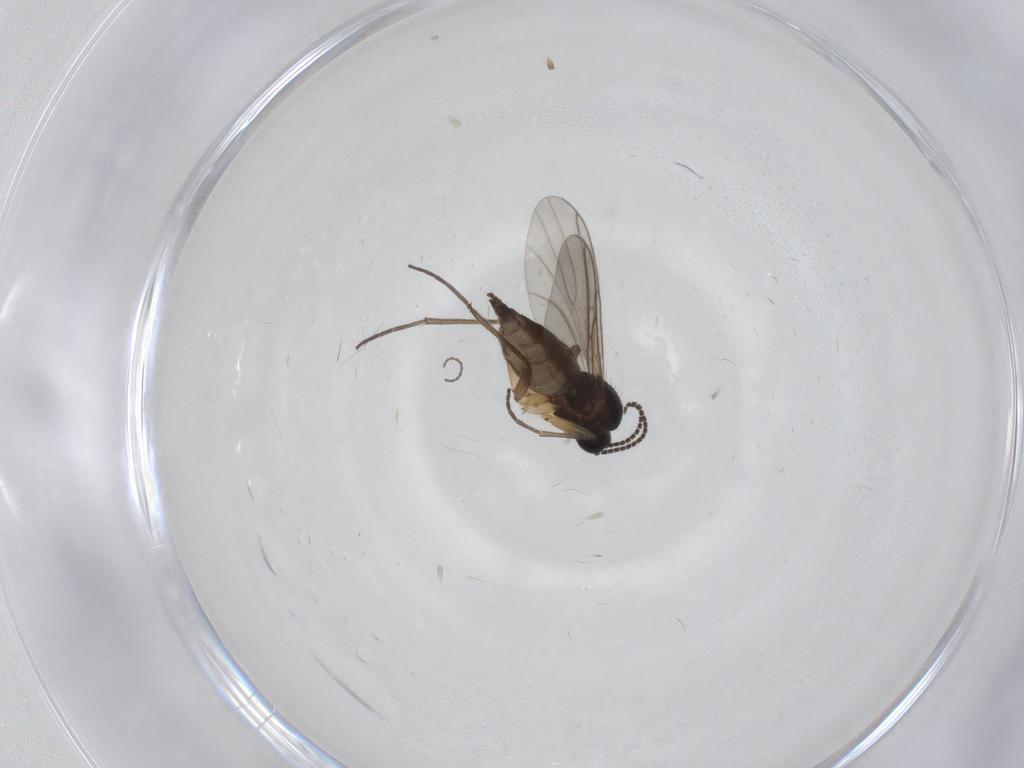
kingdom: Animalia
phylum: Arthropoda
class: Insecta
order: Diptera
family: Sciaridae
